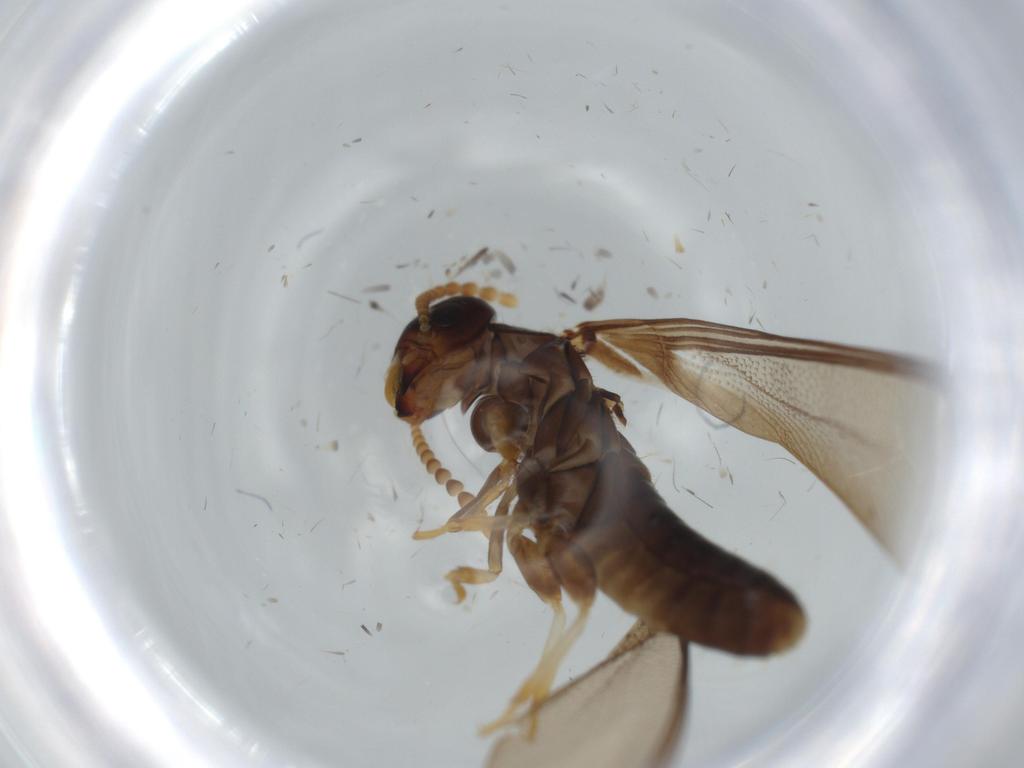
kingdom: Animalia
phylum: Arthropoda
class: Insecta
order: Blattodea
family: Kalotermitidae
